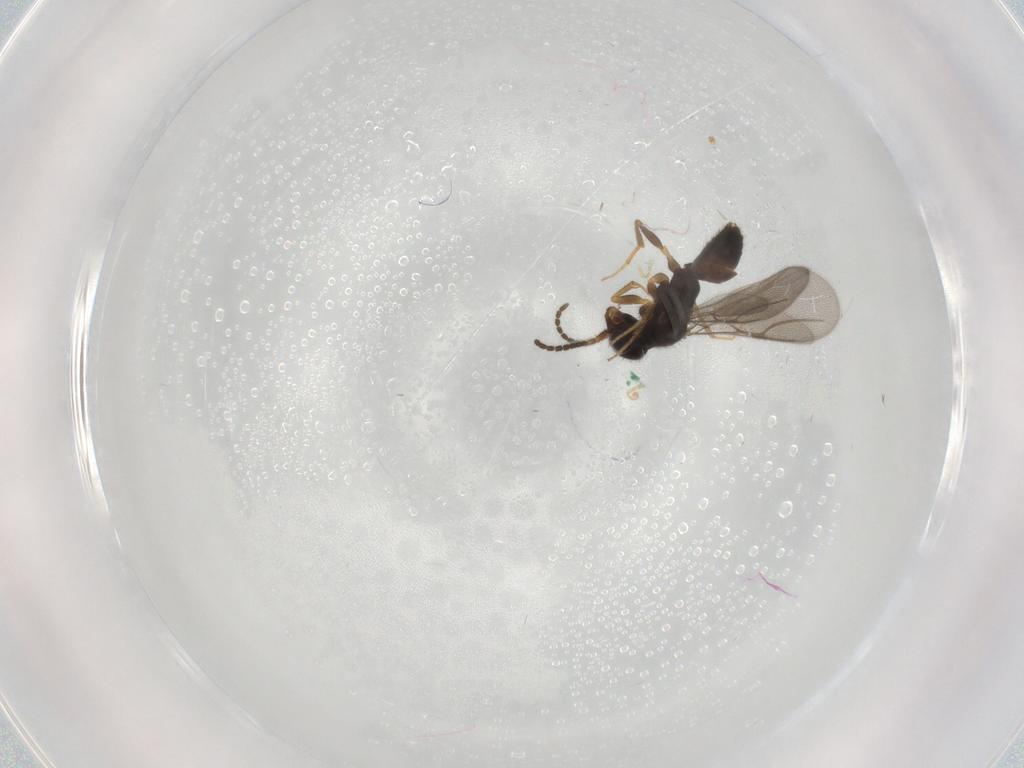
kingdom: Animalia
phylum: Arthropoda
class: Insecta
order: Hymenoptera
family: Bethylidae
